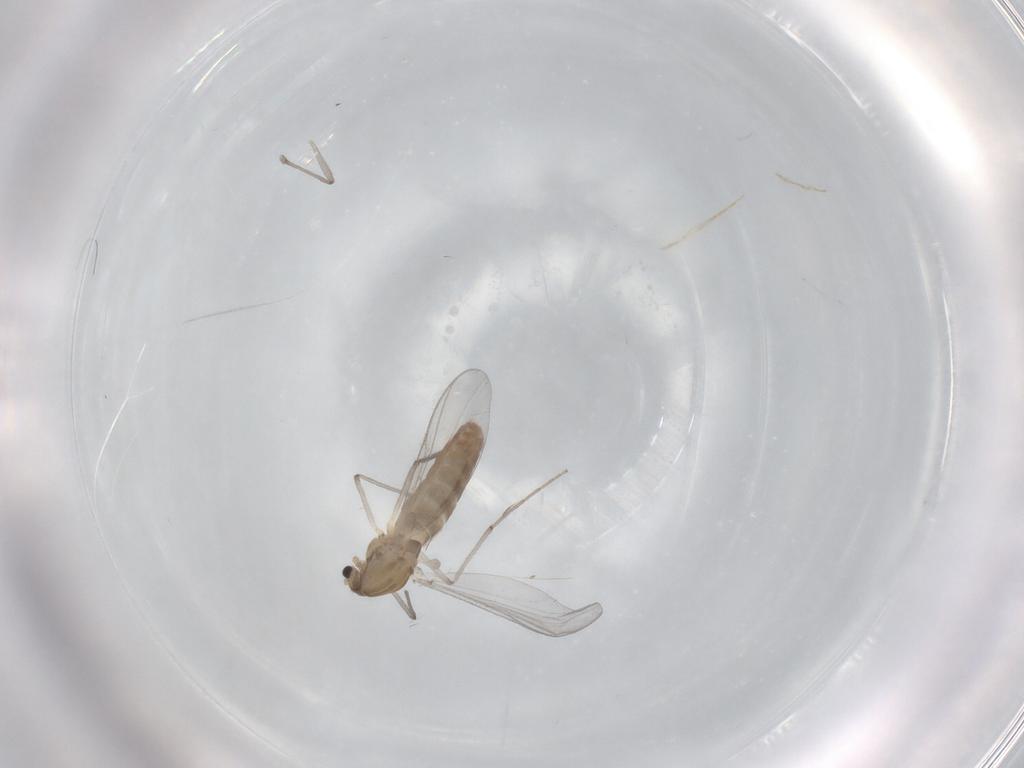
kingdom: Animalia
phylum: Arthropoda
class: Insecta
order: Diptera
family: Chironomidae
